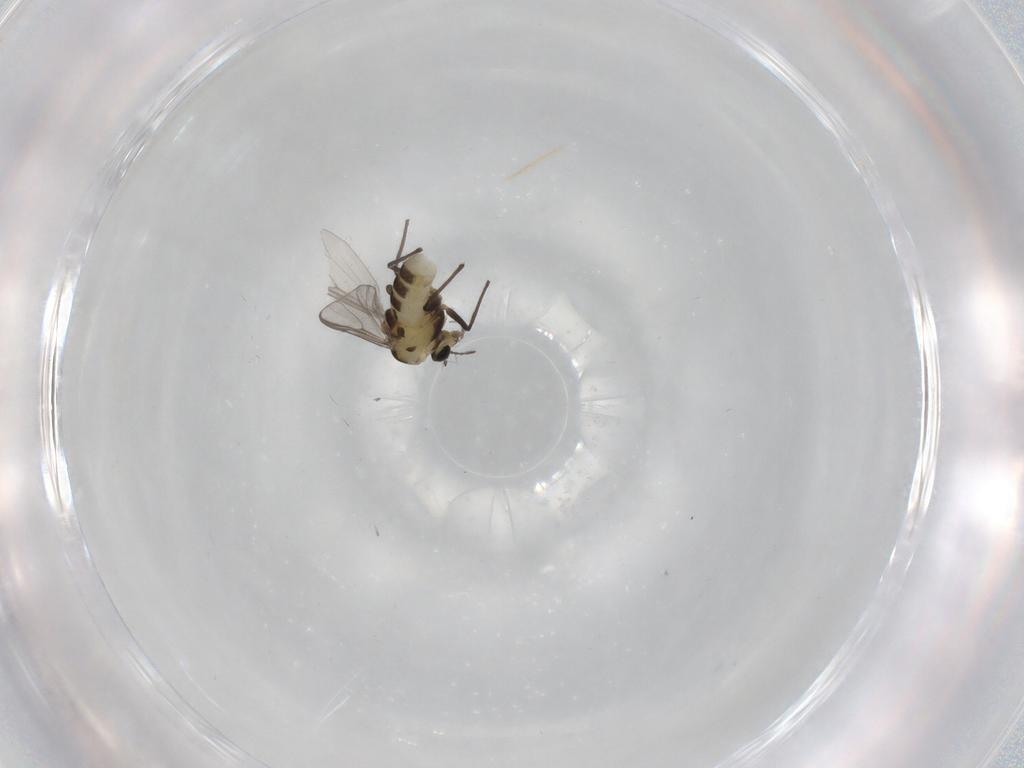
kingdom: Animalia
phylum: Arthropoda
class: Insecta
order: Diptera
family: Chironomidae
